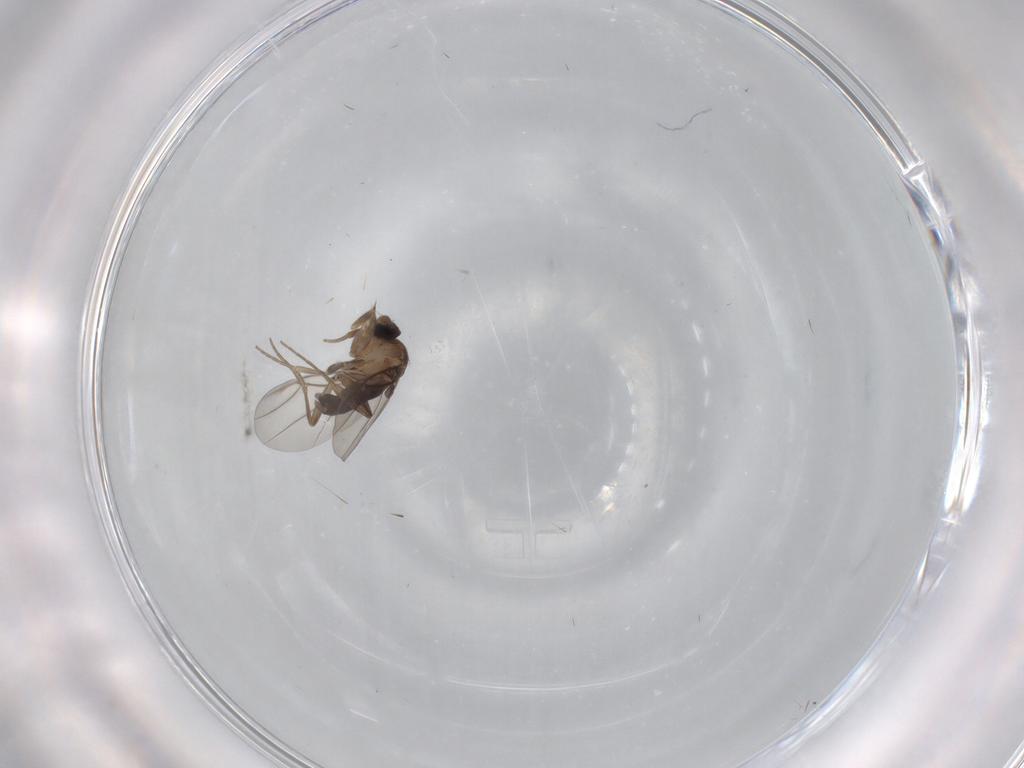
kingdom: Animalia
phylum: Arthropoda
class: Insecta
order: Diptera
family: Phoridae
